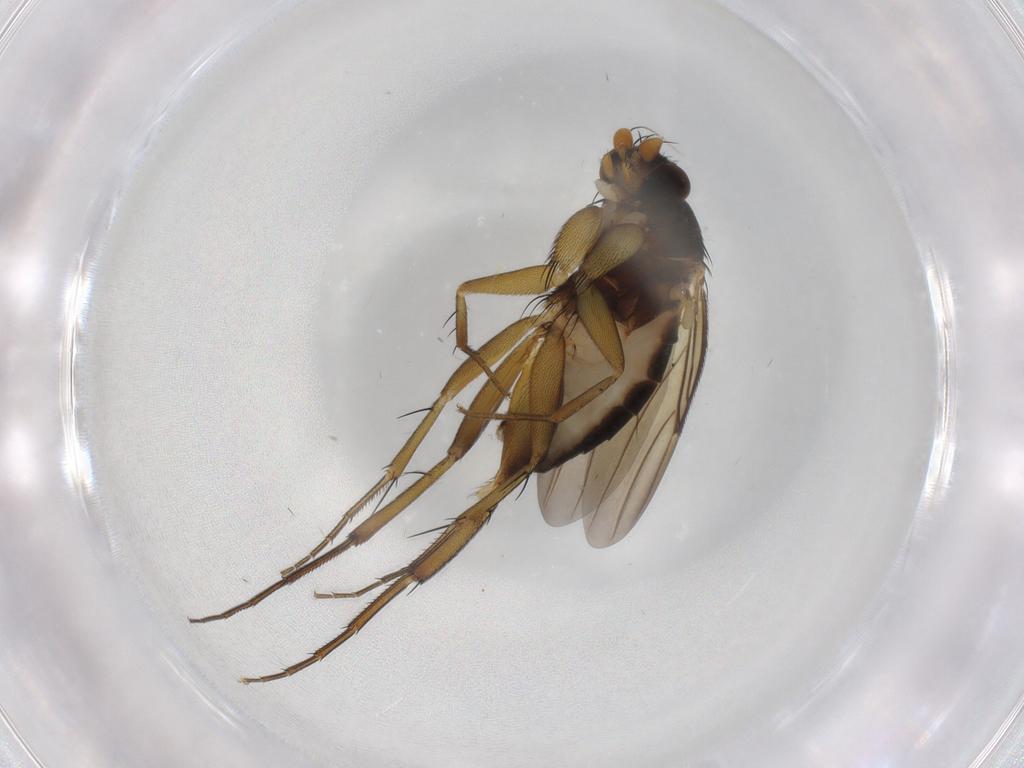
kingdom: Animalia
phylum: Arthropoda
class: Insecta
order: Diptera
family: Phoridae
